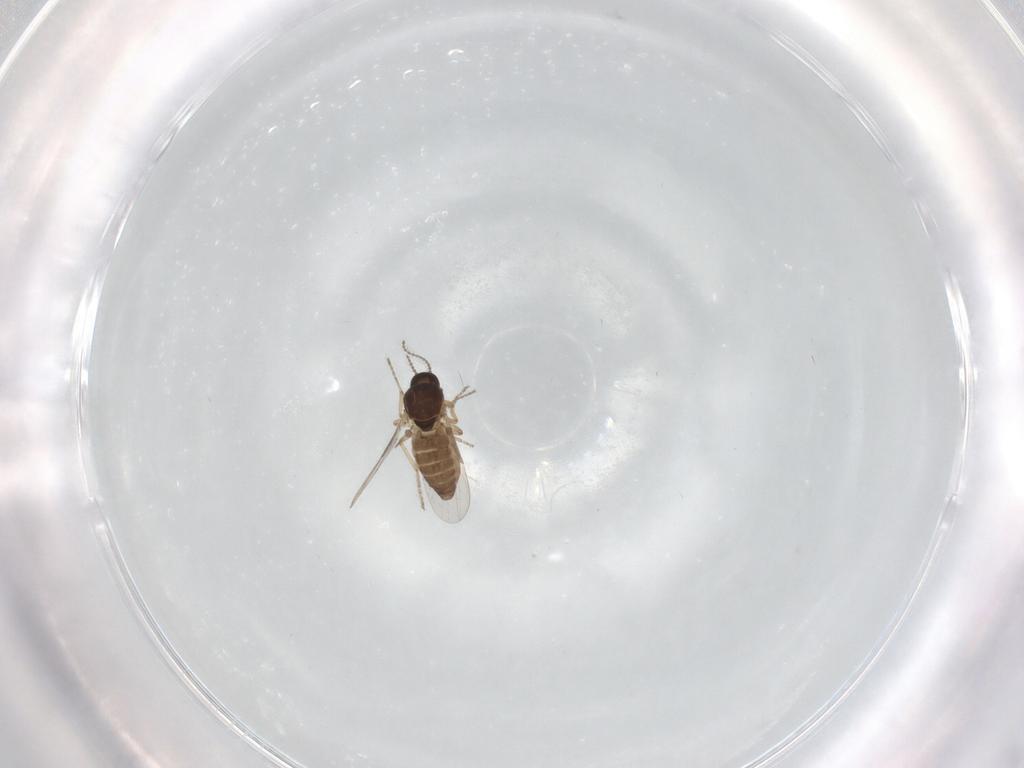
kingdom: Animalia
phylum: Arthropoda
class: Insecta
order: Diptera
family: Ceratopogonidae
